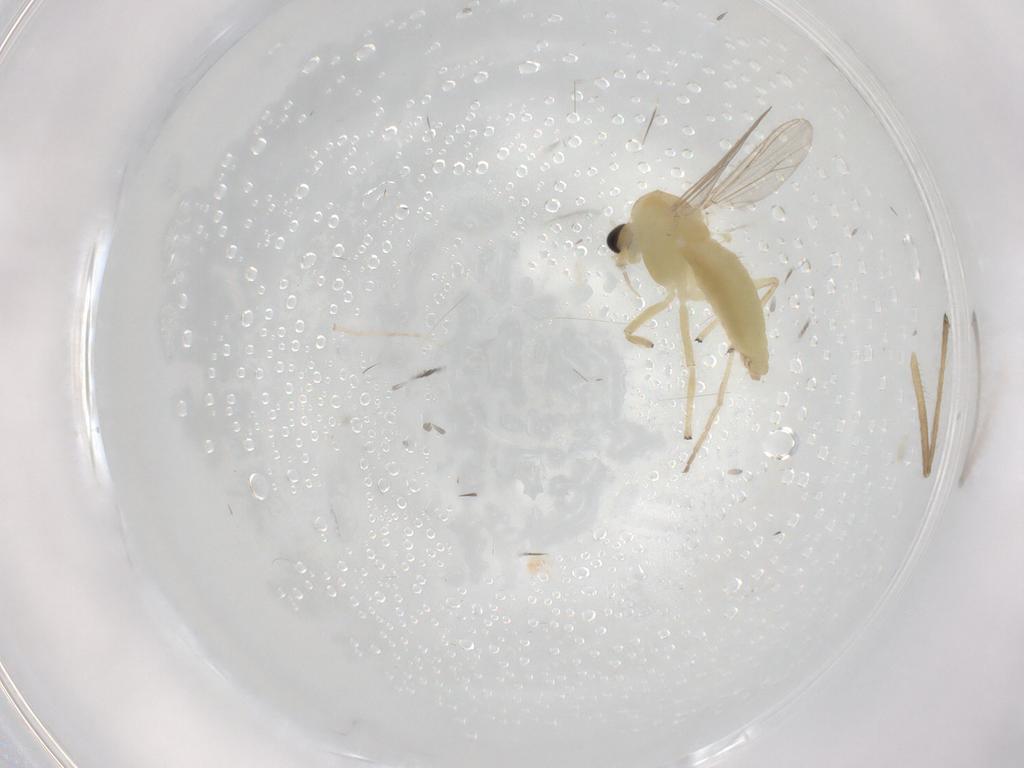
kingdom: Animalia
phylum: Arthropoda
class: Insecta
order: Diptera
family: Chironomidae
